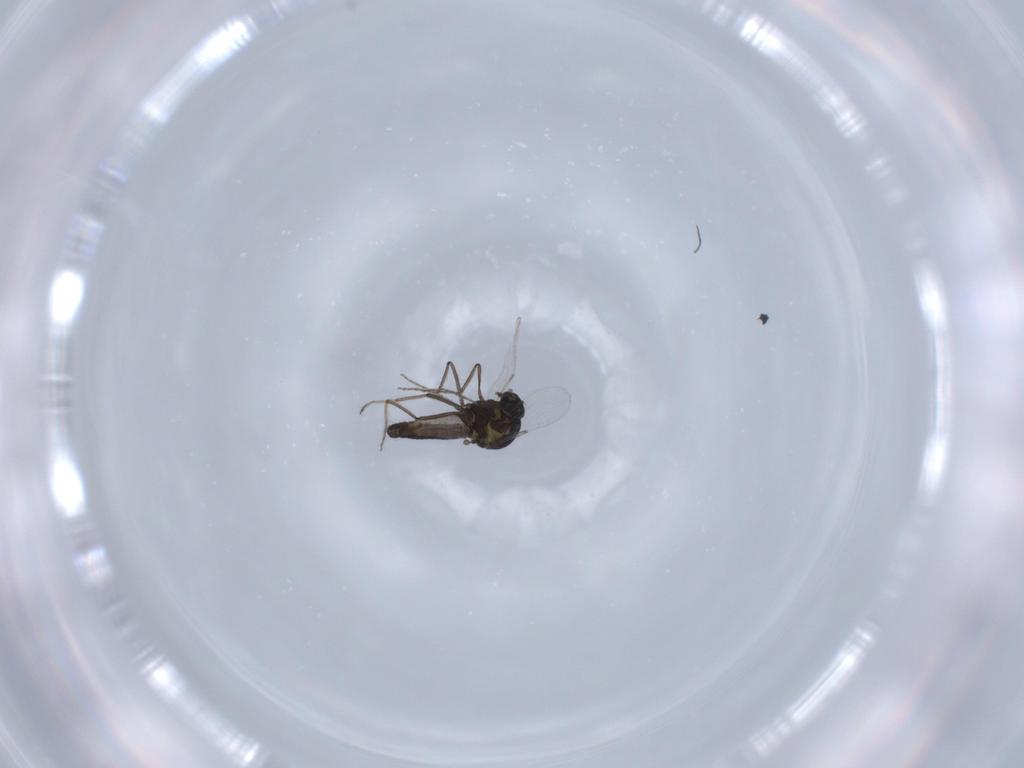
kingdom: Animalia
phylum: Arthropoda
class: Insecta
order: Diptera
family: Ceratopogonidae
